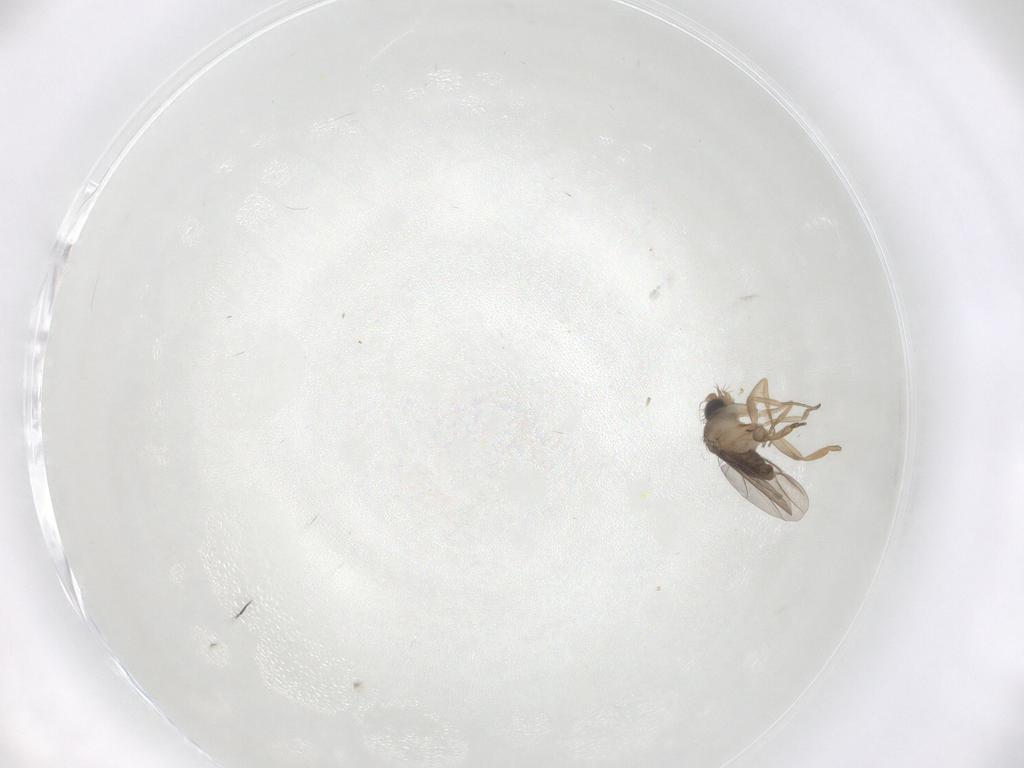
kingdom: Animalia
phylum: Arthropoda
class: Insecta
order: Diptera
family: Phoridae
